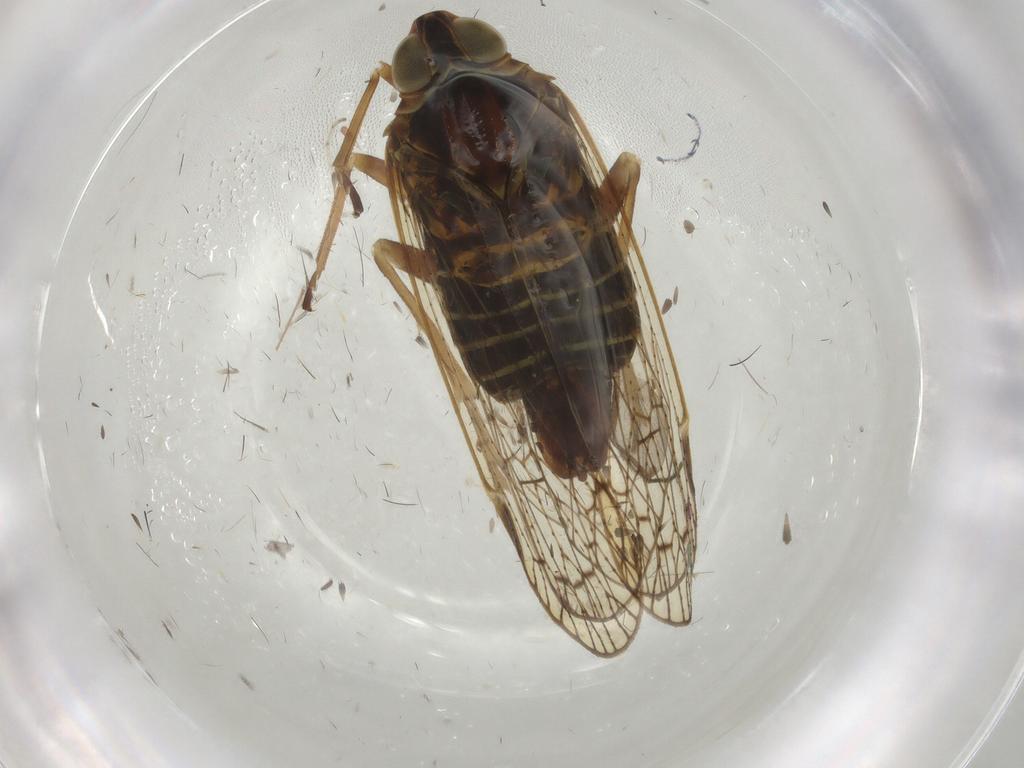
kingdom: Animalia
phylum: Arthropoda
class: Insecta
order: Hemiptera
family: Cixiidae
